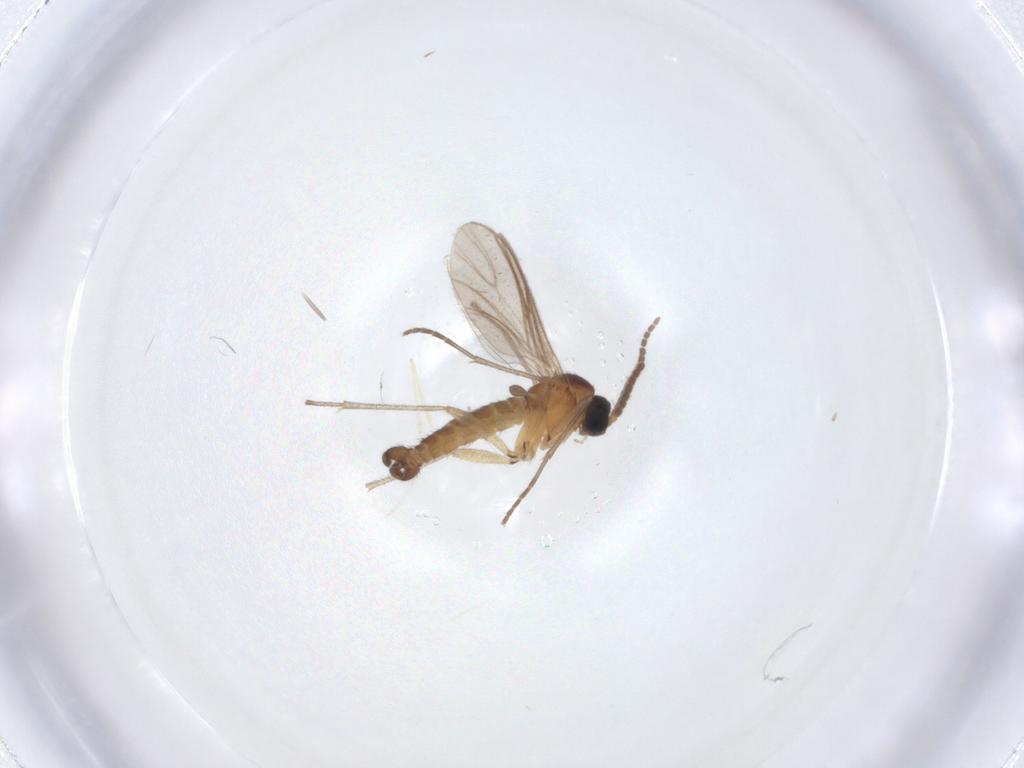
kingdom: Animalia
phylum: Arthropoda
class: Insecta
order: Diptera
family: Sciaridae
